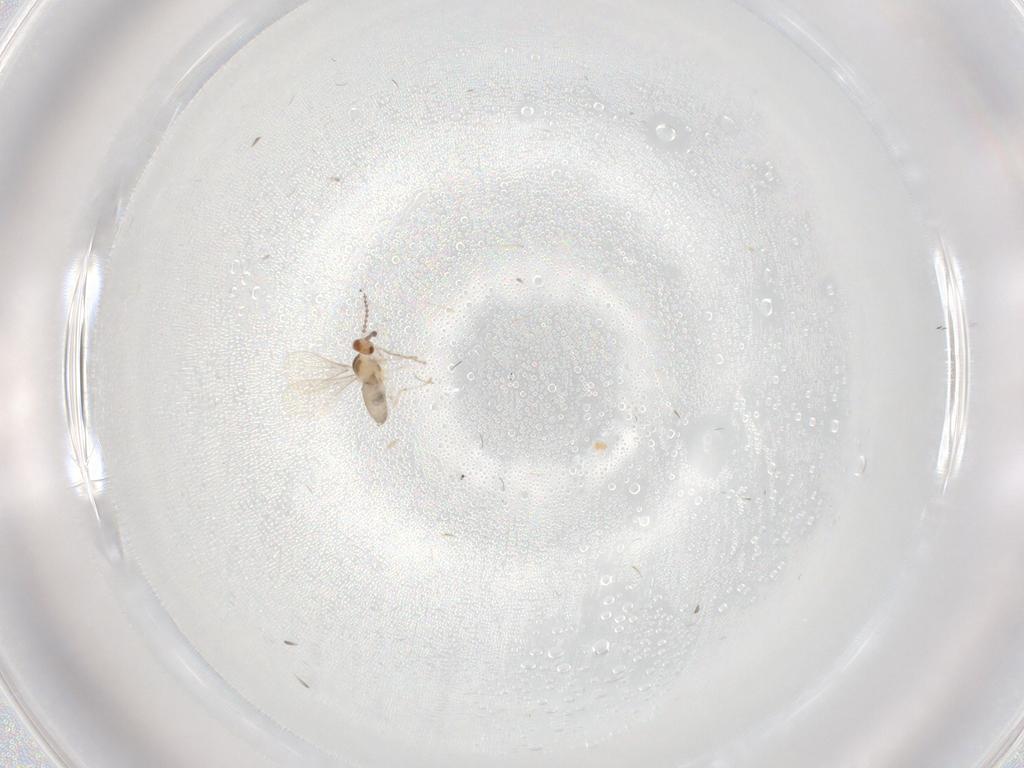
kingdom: Animalia
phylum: Arthropoda
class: Insecta
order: Diptera
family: Cecidomyiidae
